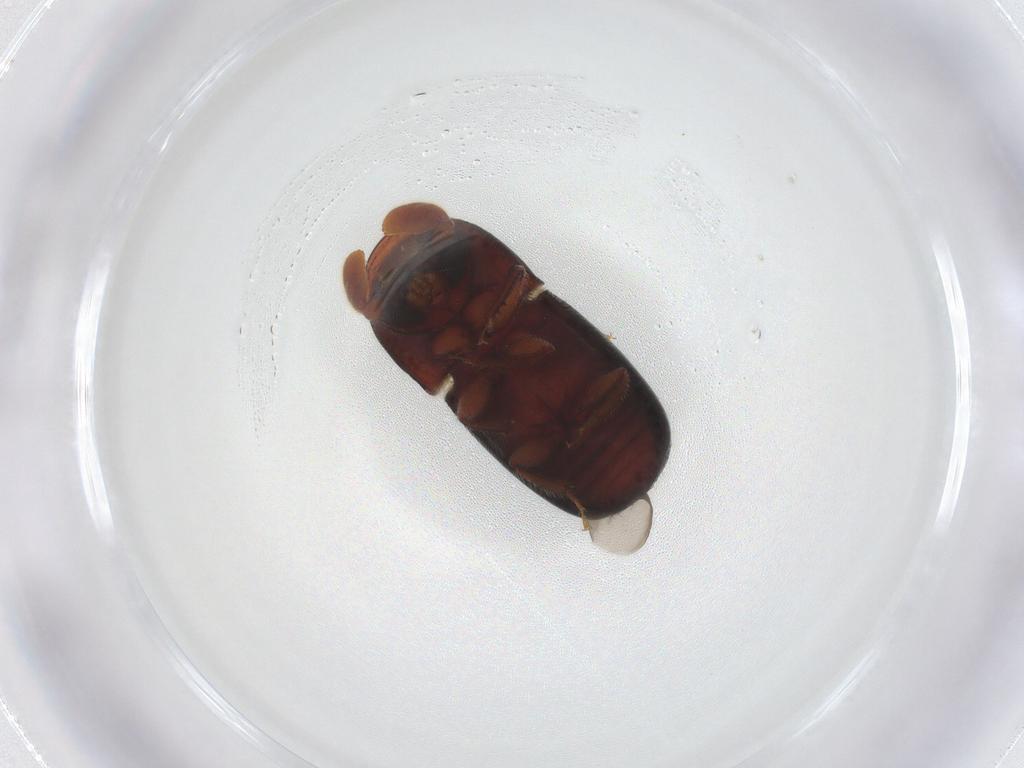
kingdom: Animalia
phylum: Arthropoda
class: Insecta
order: Coleoptera
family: Curculionidae
